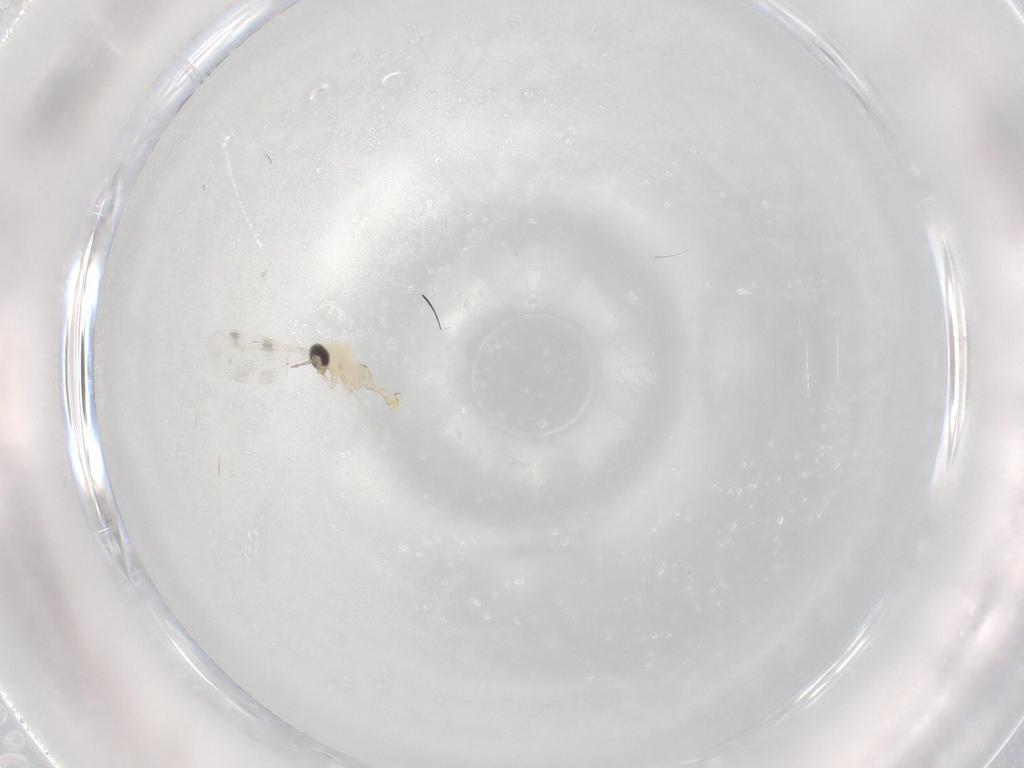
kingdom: Animalia
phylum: Arthropoda
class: Insecta
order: Diptera
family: Cecidomyiidae
